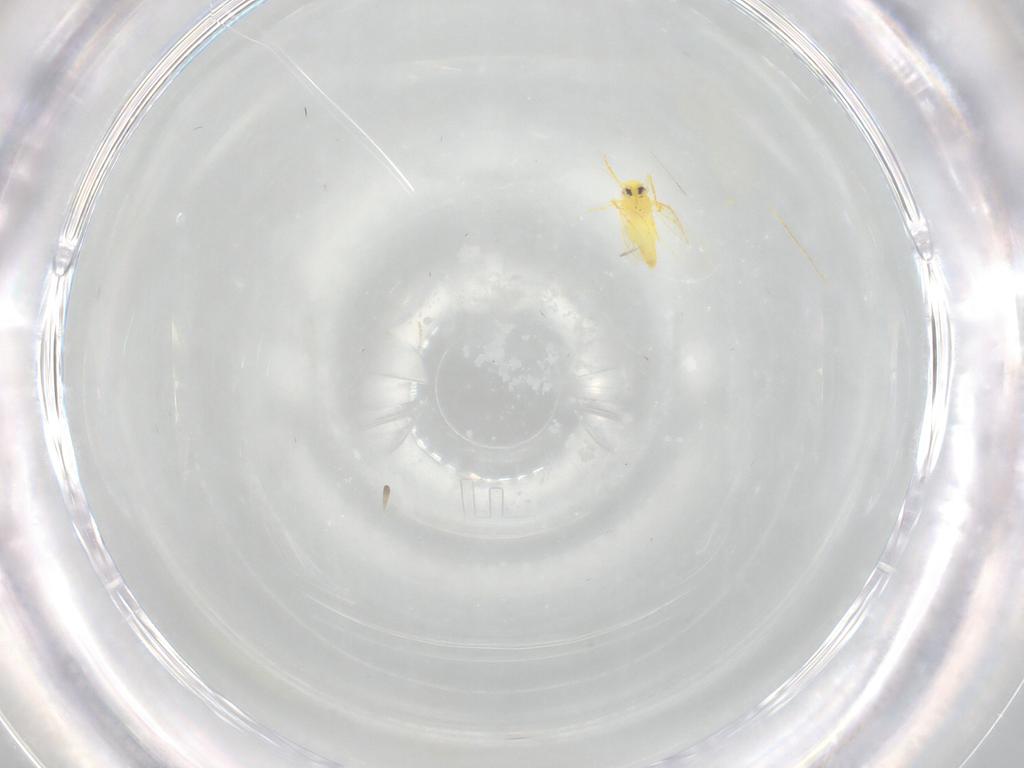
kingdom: Animalia
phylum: Arthropoda
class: Insecta
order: Hemiptera
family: Aleyrodidae
